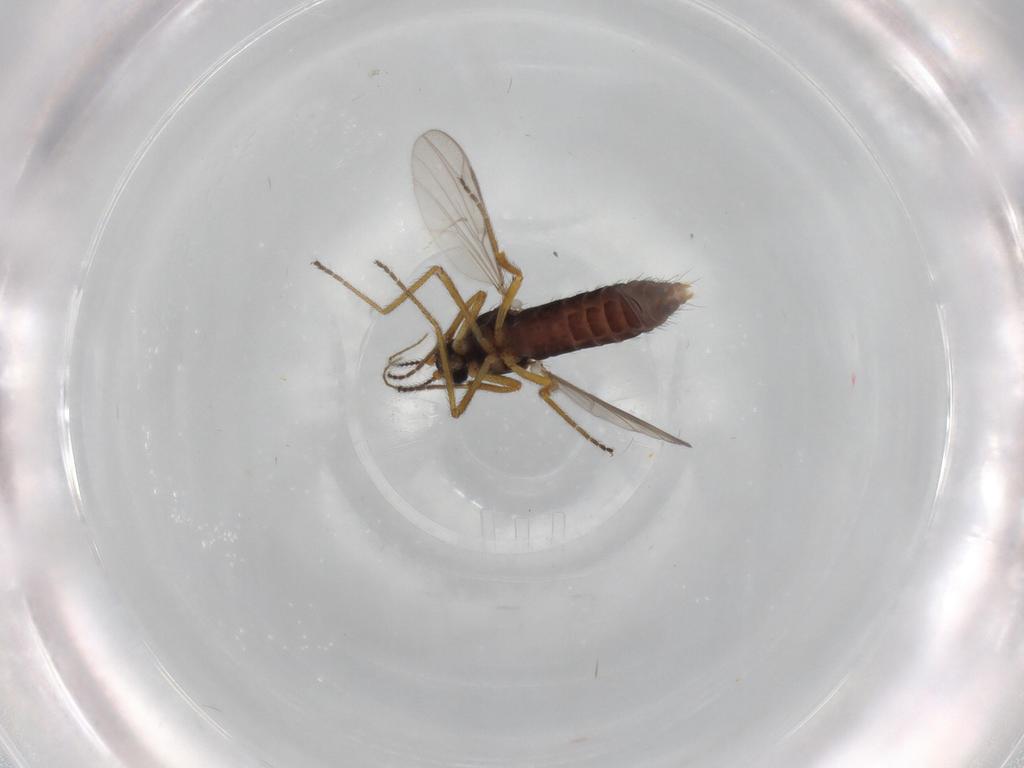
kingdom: Animalia
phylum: Arthropoda
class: Insecta
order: Diptera
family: Ceratopogonidae
